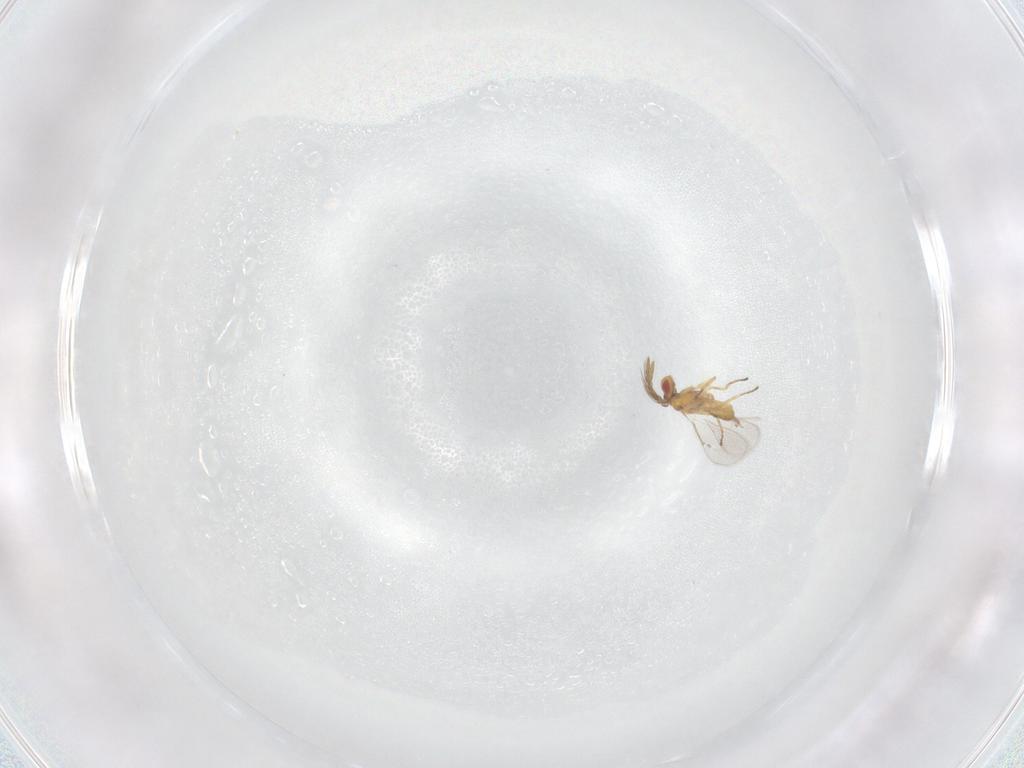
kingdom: Animalia
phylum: Arthropoda
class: Insecta
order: Hymenoptera
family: Eulophidae
